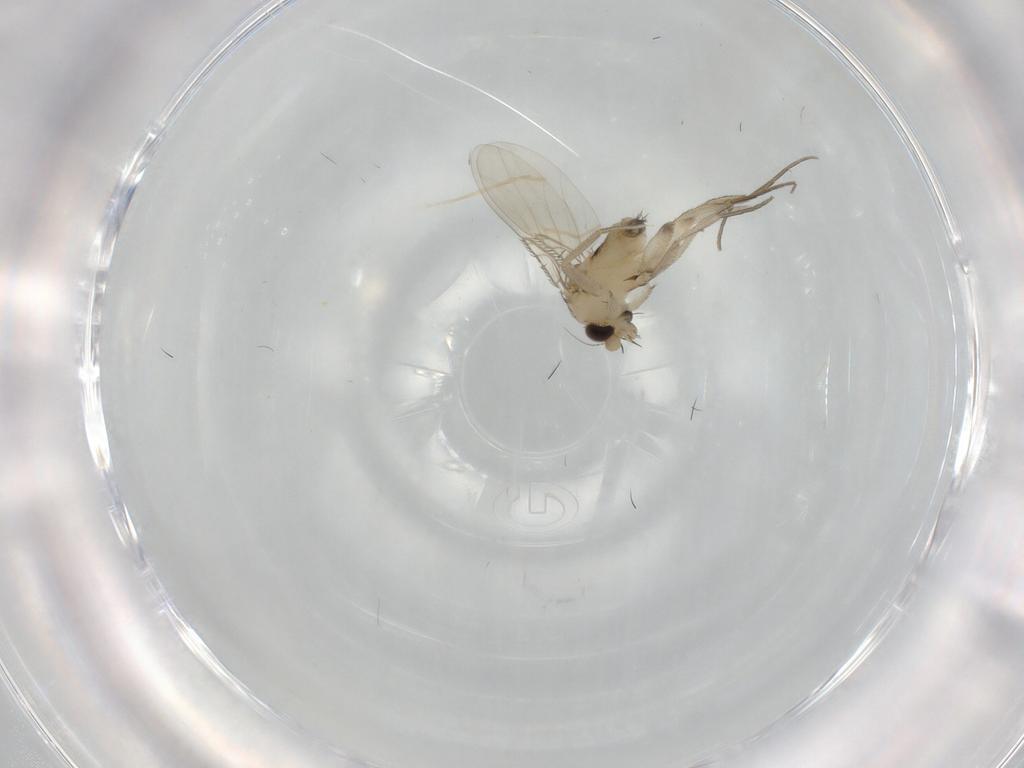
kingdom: Animalia
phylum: Arthropoda
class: Insecta
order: Diptera
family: Phoridae
